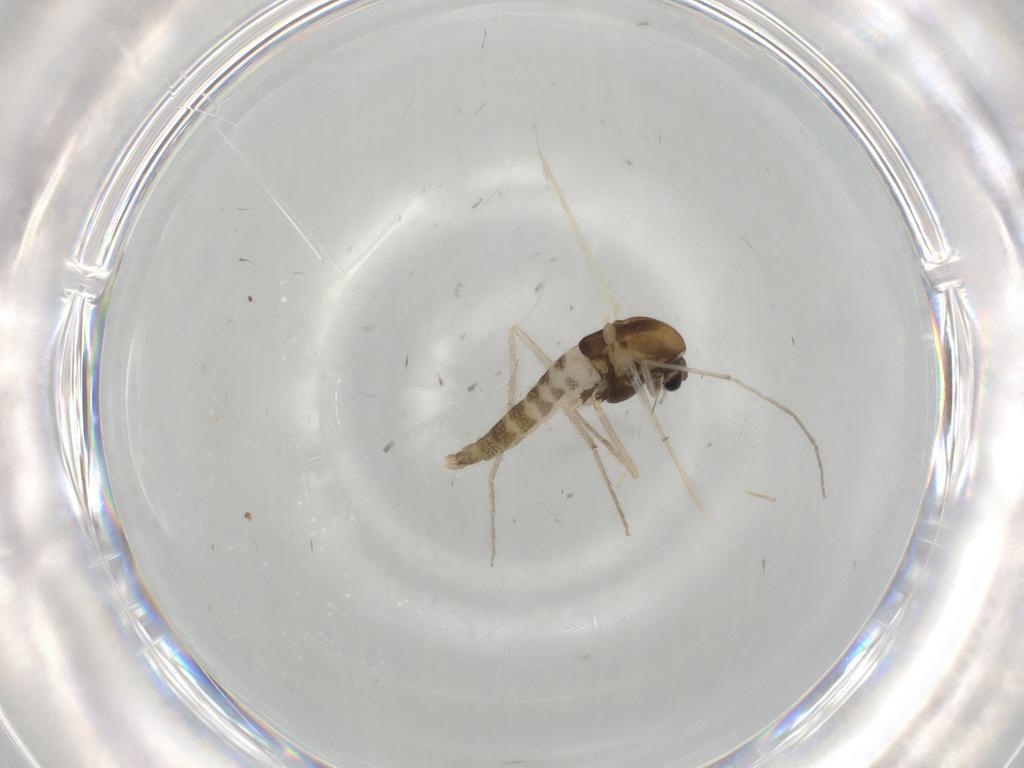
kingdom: Animalia
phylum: Arthropoda
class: Insecta
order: Diptera
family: Chironomidae
